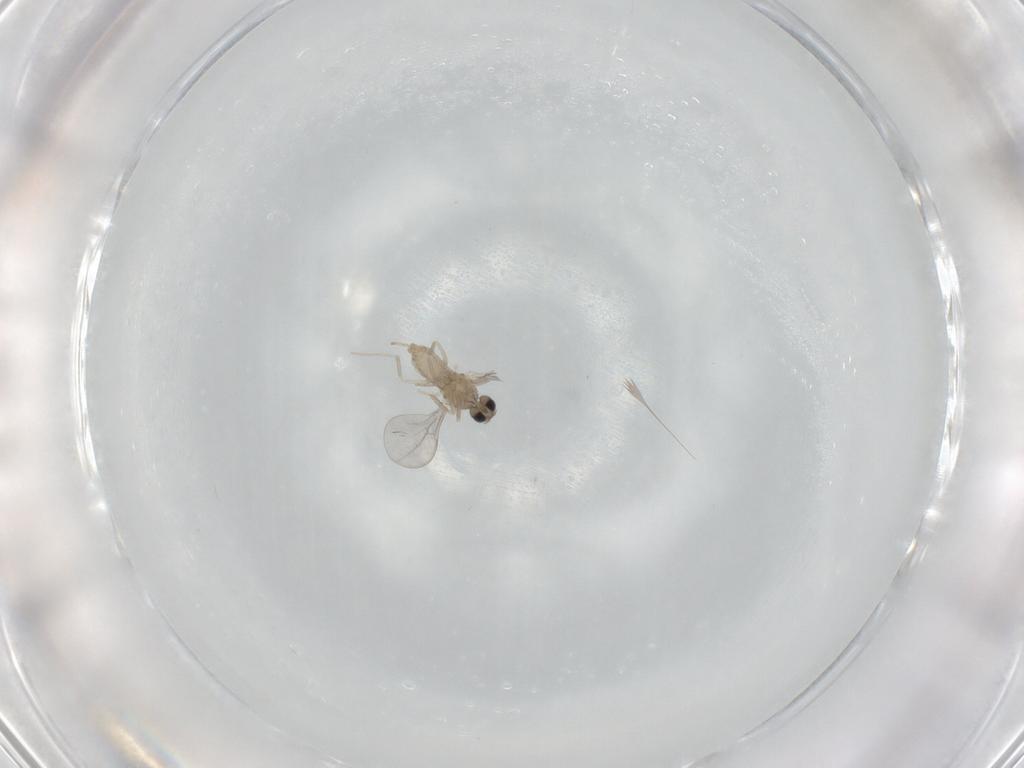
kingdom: Animalia
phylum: Arthropoda
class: Insecta
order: Diptera
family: Cecidomyiidae
